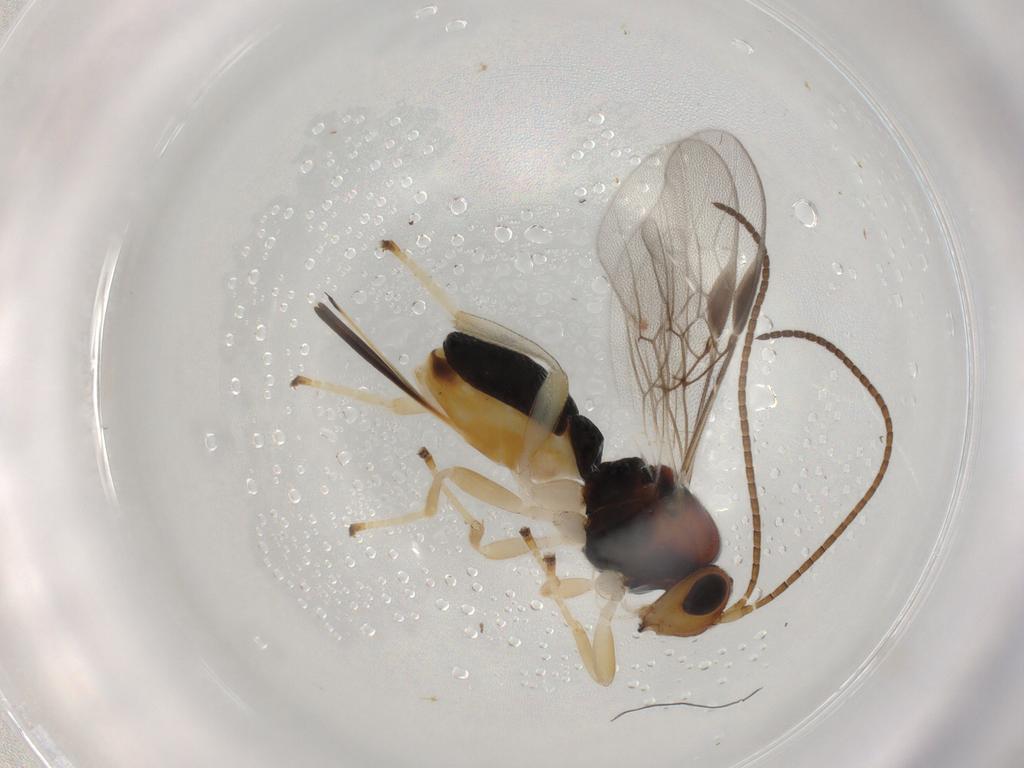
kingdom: Animalia
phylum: Arthropoda
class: Insecta
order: Hymenoptera
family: Braconidae
